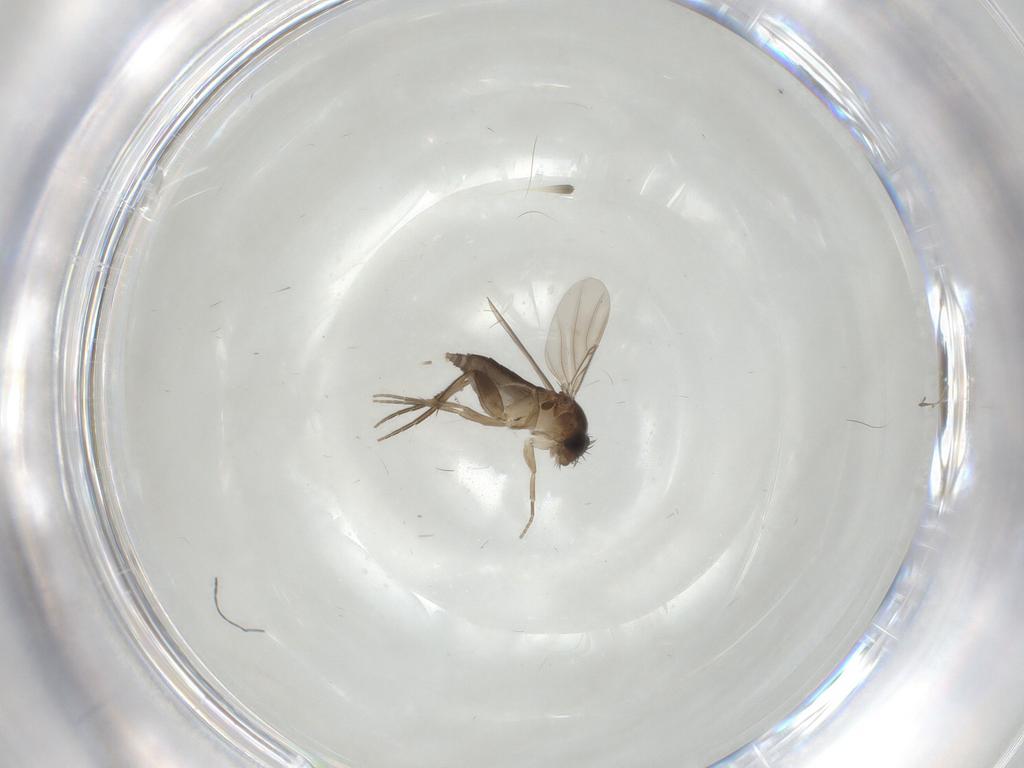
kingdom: Animalia
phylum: Arthropoda
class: Insecta
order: Diptera
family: Phoridae
